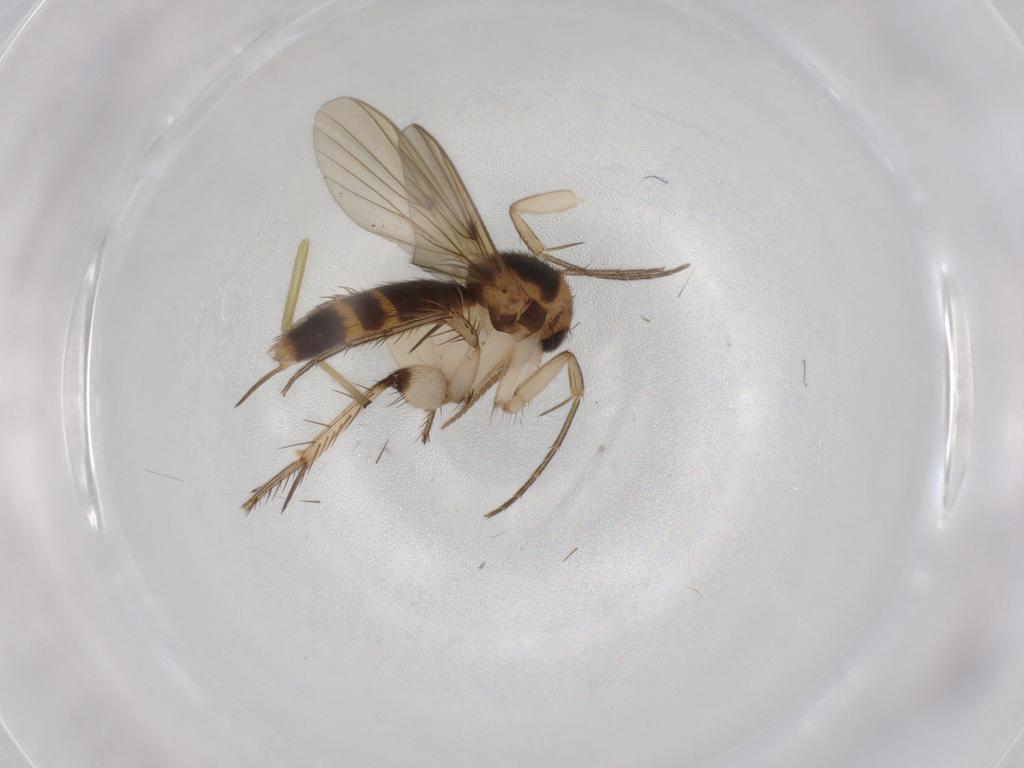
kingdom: Animalia
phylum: Arthropoda
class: Insecta
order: Diptera
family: Mycetophilidae
